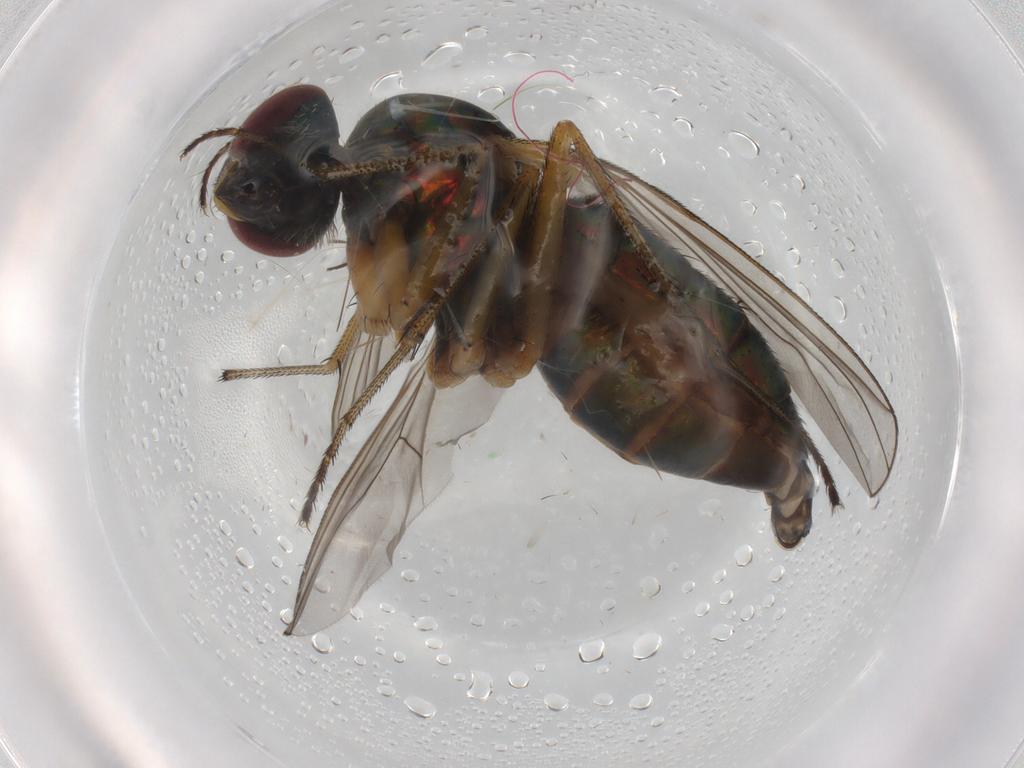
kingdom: Animalia
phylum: Arthropoda
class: Insecta
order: Diptera
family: Dolichopodidae
